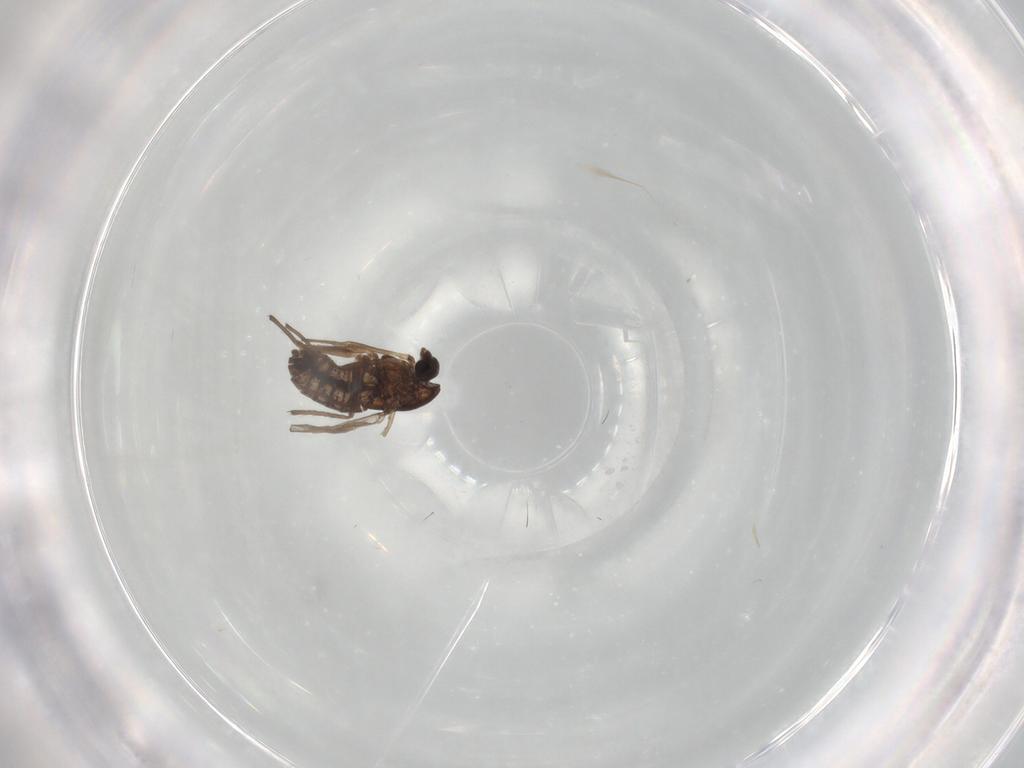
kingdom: Animalia
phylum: Arthropoda
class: Insecta
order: Diptera
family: Chironomidae
